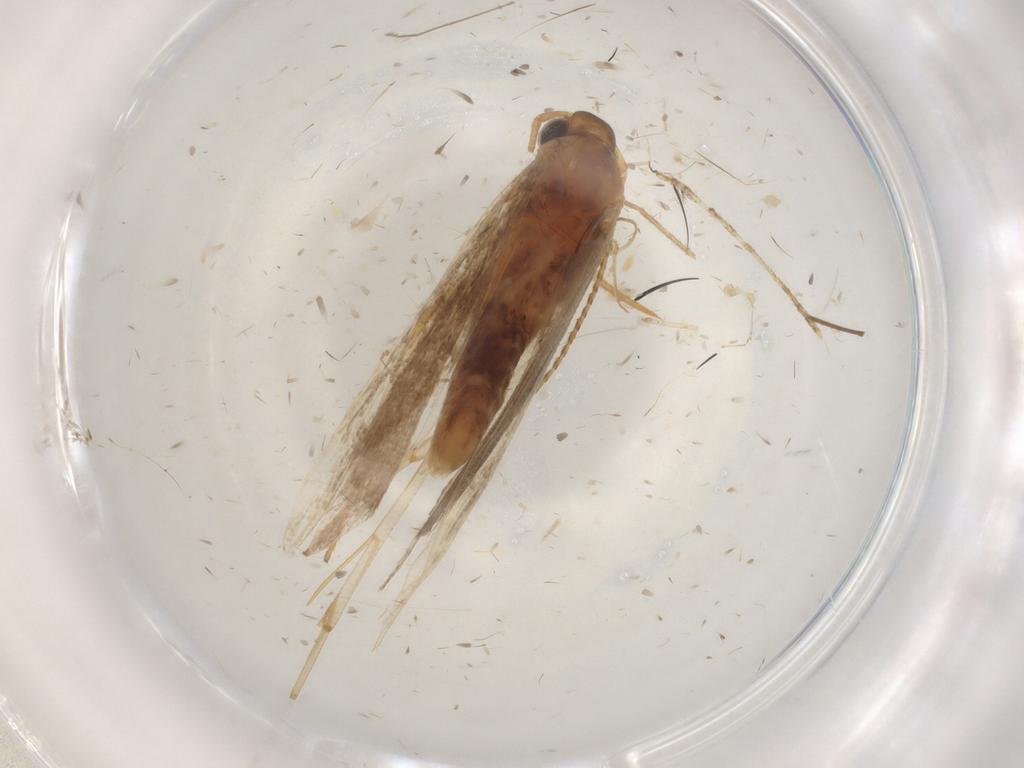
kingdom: Animalia
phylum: Arthropoda
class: Insecta
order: Lepidoptera
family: Gelechiidae
